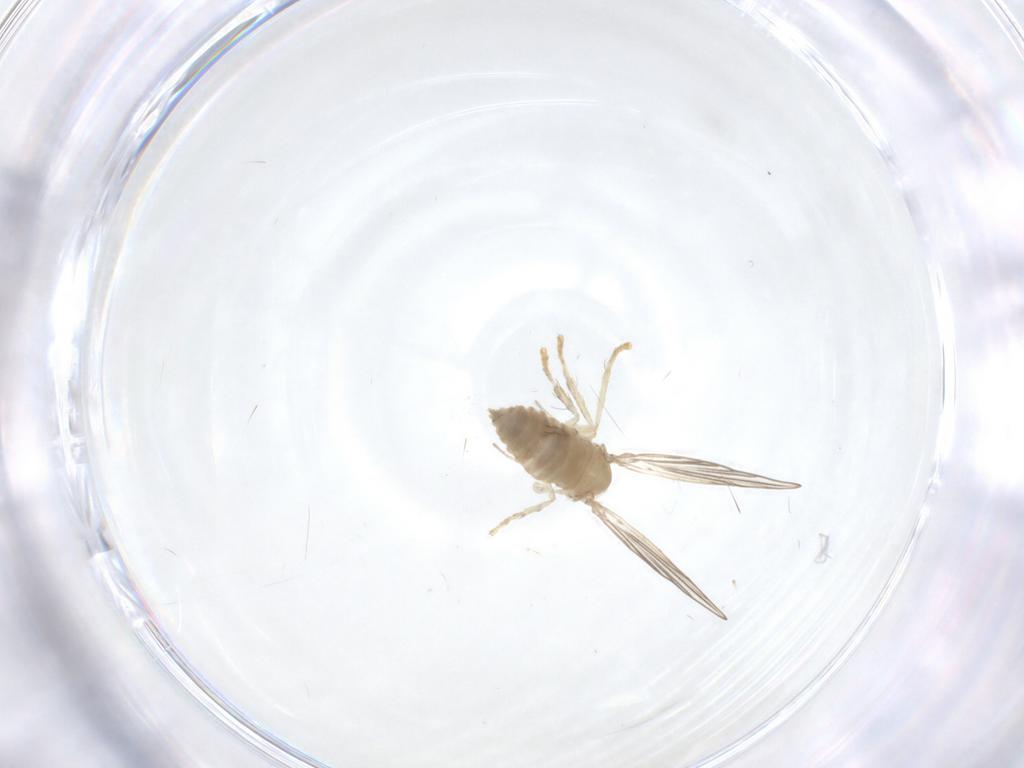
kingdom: Animalia
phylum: Arthropoda
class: Insecta
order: Diptera
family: Psychodidae
